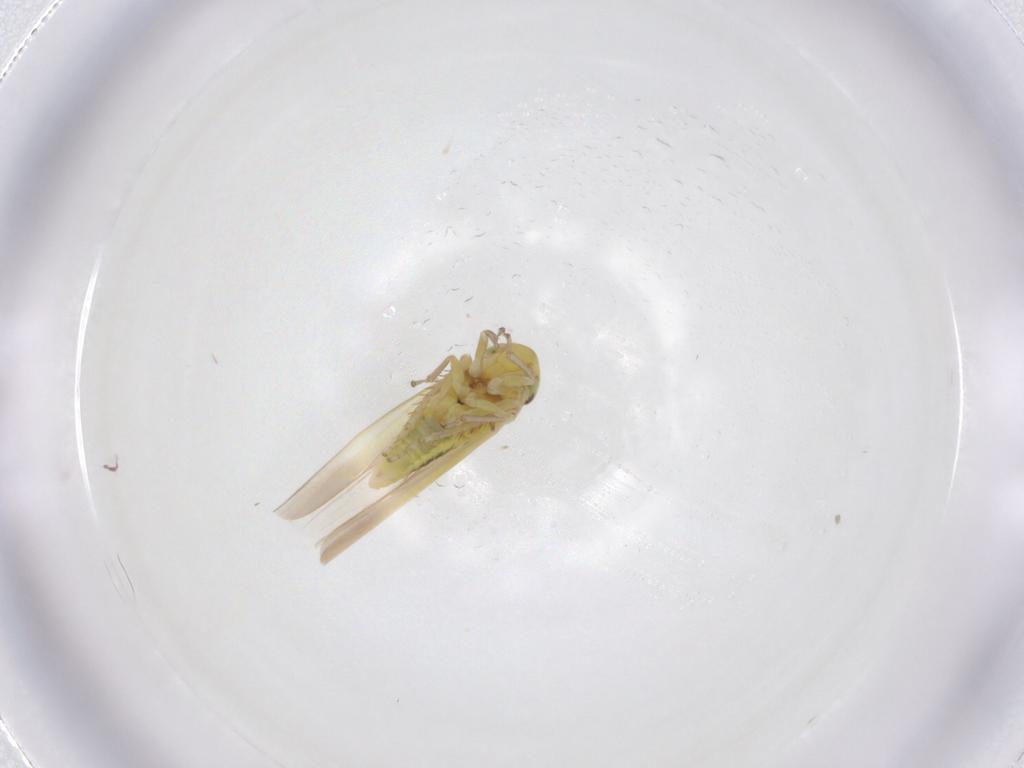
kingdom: Animalia
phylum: Arthropoda
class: Insecta
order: Hemiptera
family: Cicadellidae
